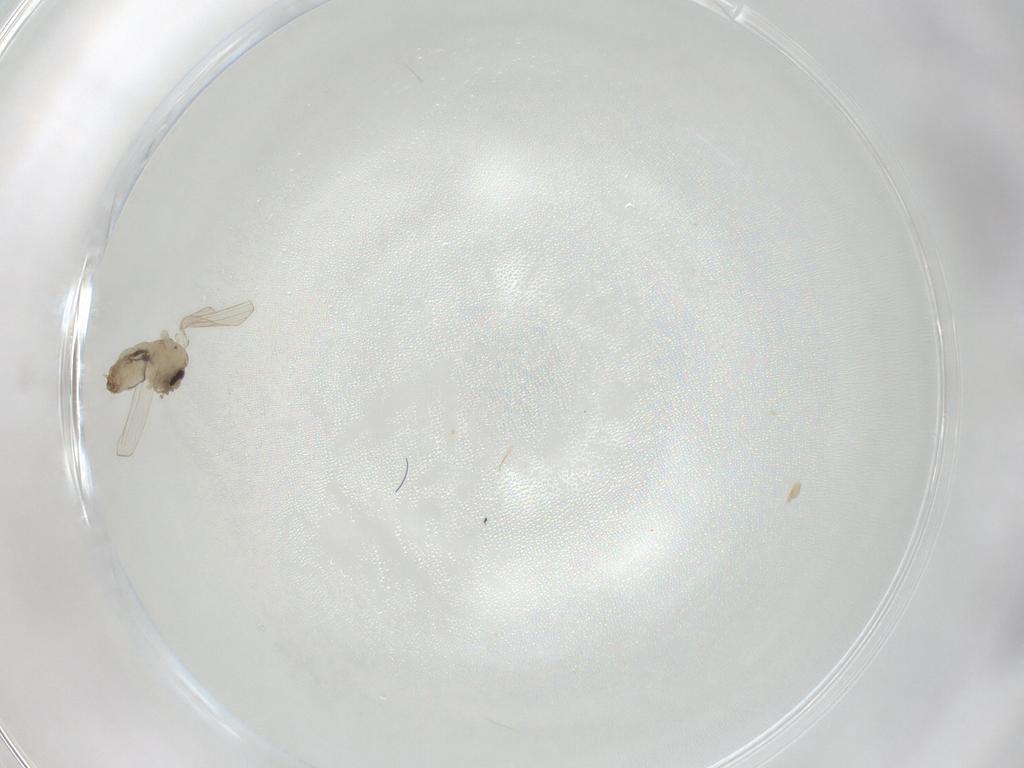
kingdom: Animalia
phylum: Arthropoda
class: Insecta
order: Diptera
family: Psychodidae
